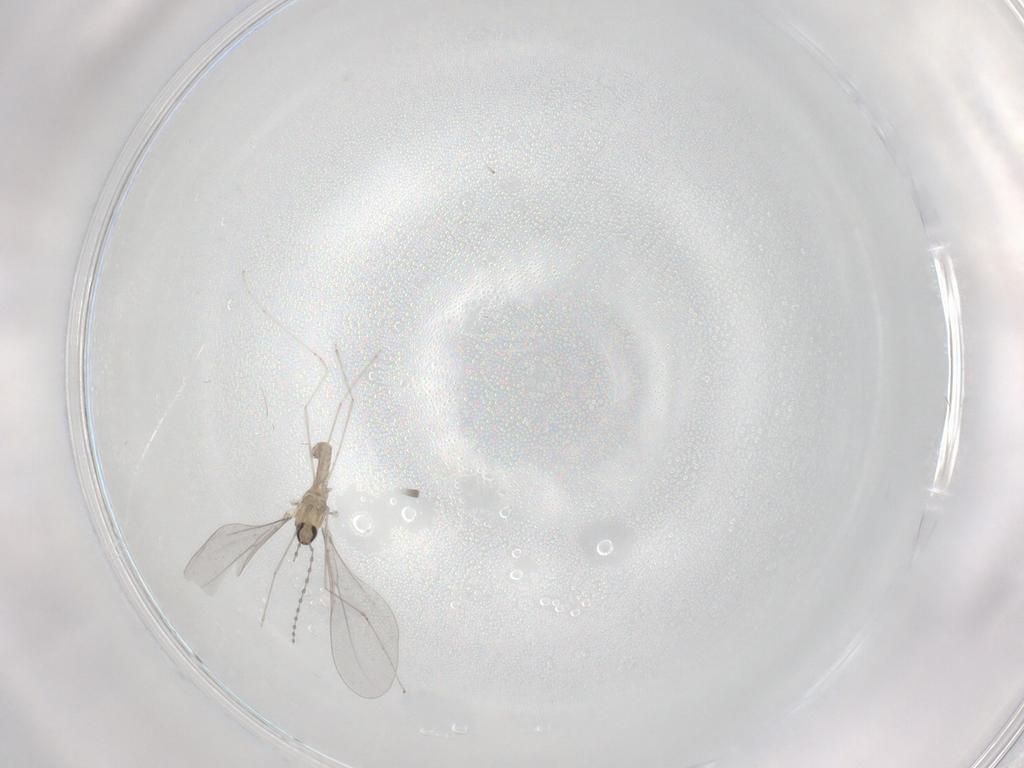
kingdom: Animalia
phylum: Arthropoda
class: Insecta
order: Diptera
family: Cecidomyiidae
